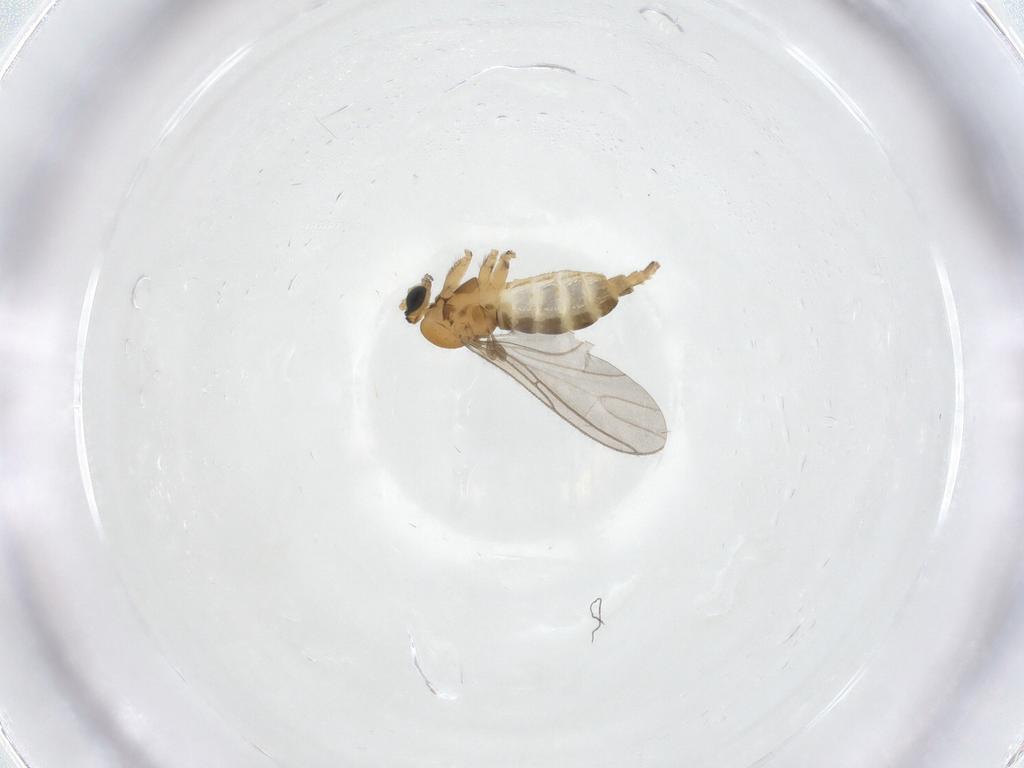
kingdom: Animalia
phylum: Arthropoda
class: Insecta
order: Diptera
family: Sciaridae
